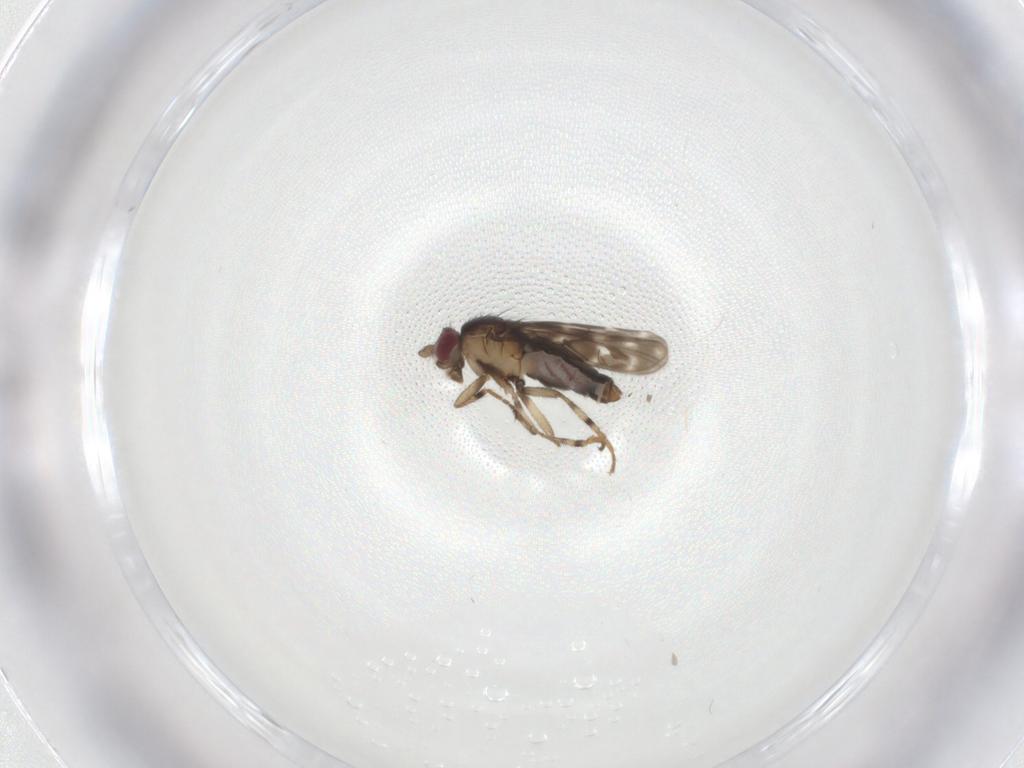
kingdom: Animalia
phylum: Arthropoda
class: Insecta
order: Diptera
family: Sphaeroceridae
